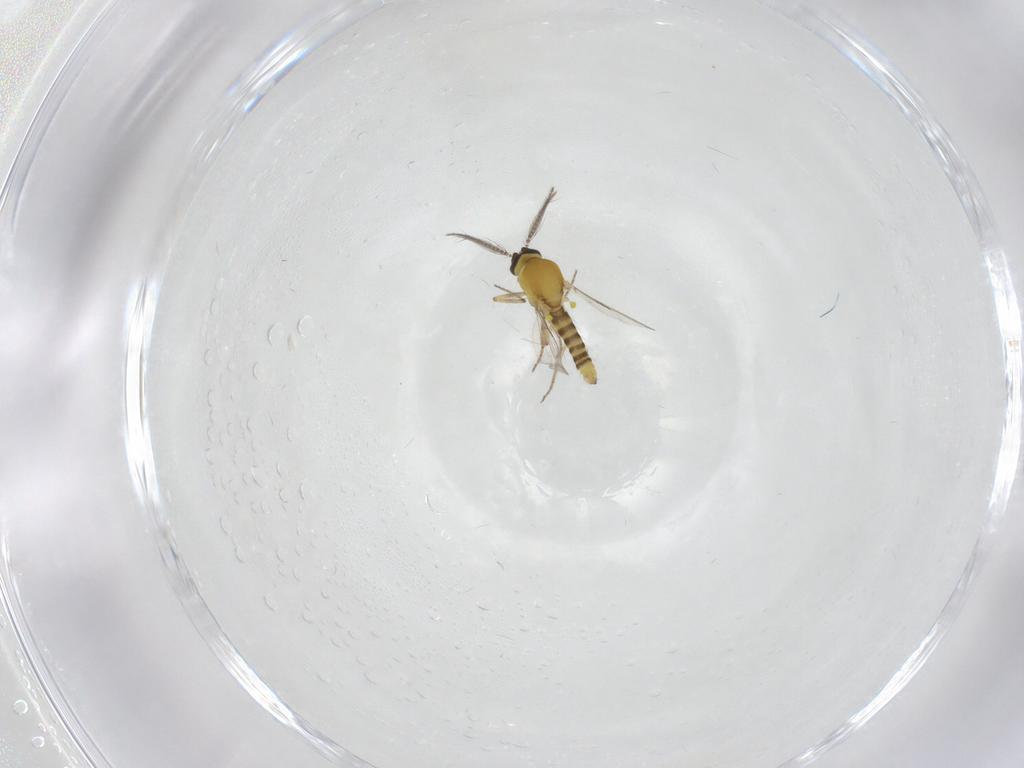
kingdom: Animalia
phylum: Arthropoda
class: Insecta
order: Diptera
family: Ceratopogonidae
